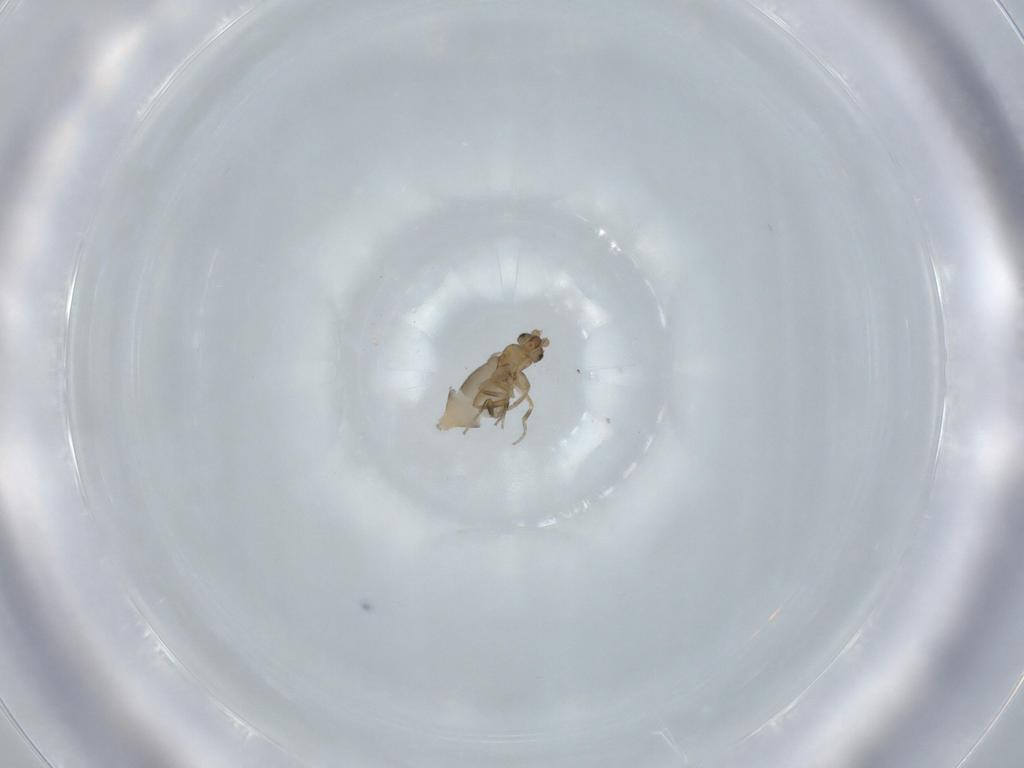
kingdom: Animalia
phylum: Arthropoda
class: Insecta
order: Diptera
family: Phoridae
